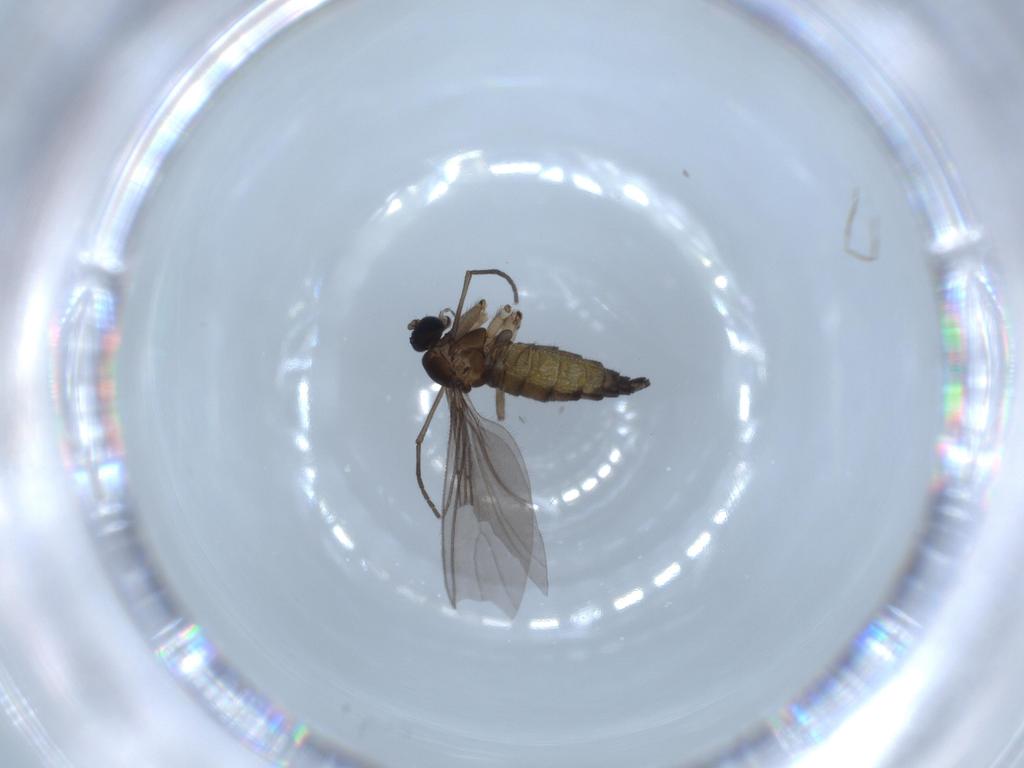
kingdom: Animalia
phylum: Arthropoda
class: Insecta
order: Diptera
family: Sciaridae
